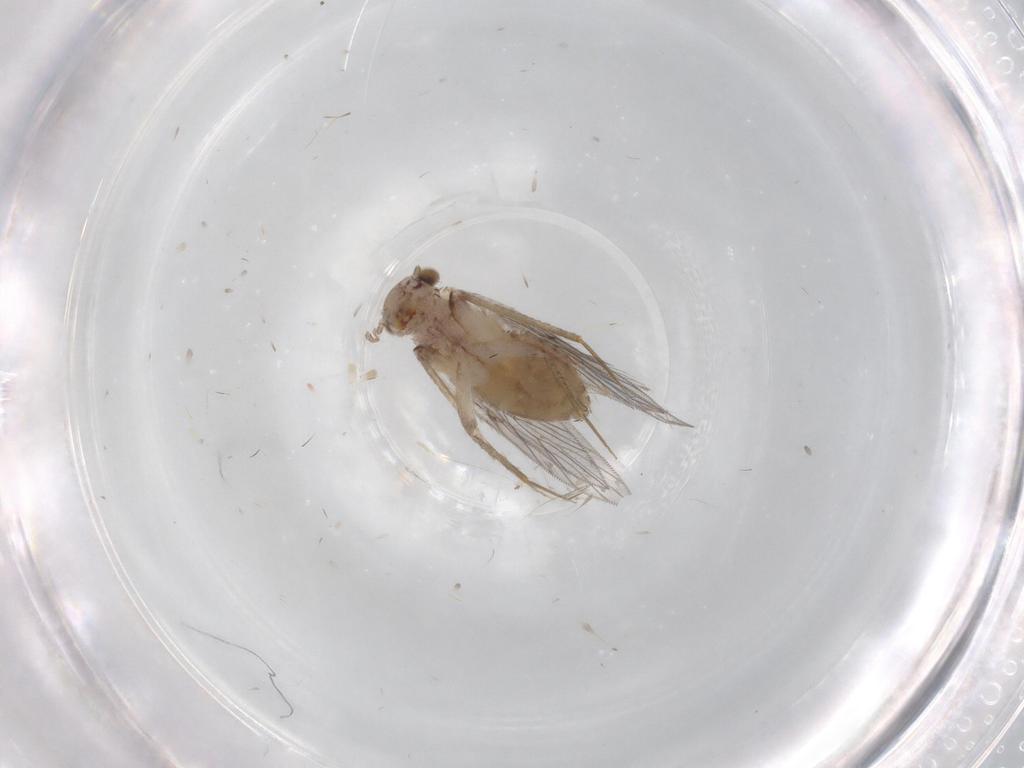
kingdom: Animalia
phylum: Arthropoda
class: Insecta
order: Psocodea
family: Lepidopsocidae
